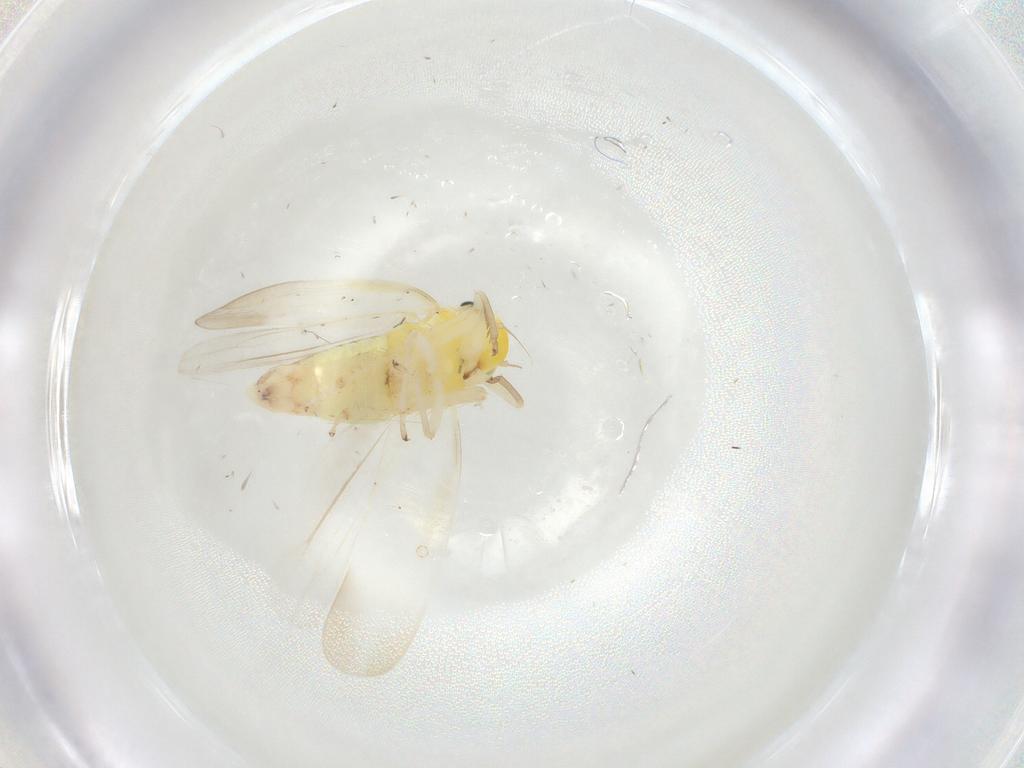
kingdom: Animalia
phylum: Arthropoda
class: Insecta
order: Hemiptera
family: Cicadellidae
